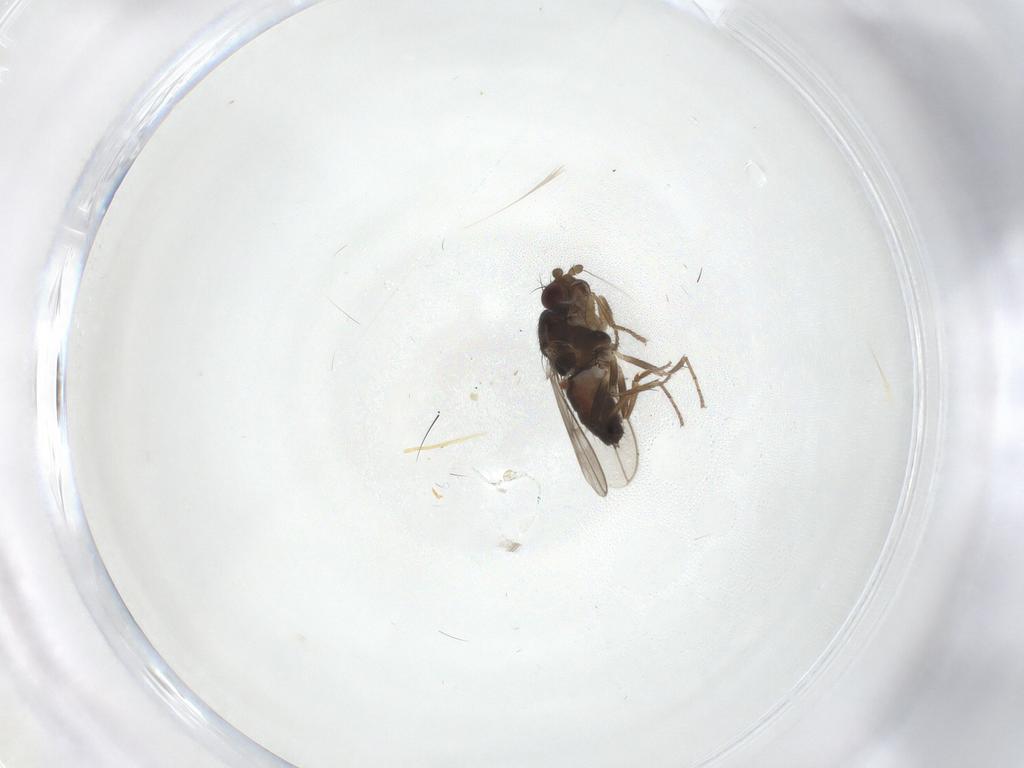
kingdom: Animalia
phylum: Arthropoda
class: Insecta
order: Diptera
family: Sphaeroceridae
